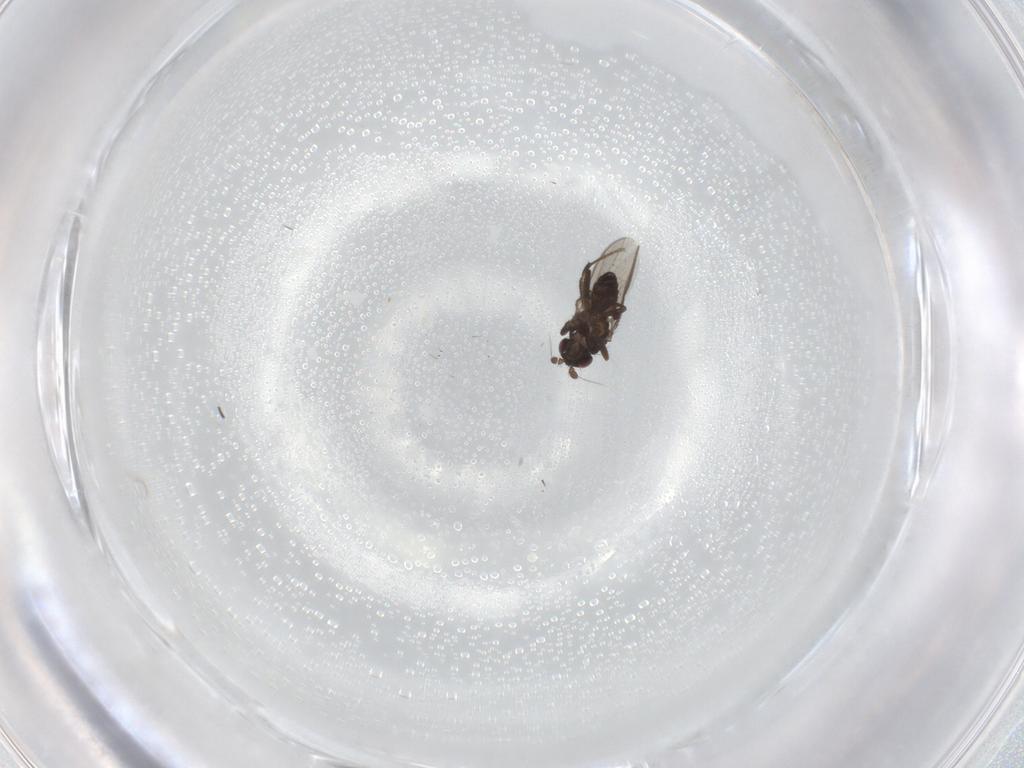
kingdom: Animalia
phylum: Arthropoda
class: Insecta
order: Diptera
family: Sphaeroceridae
